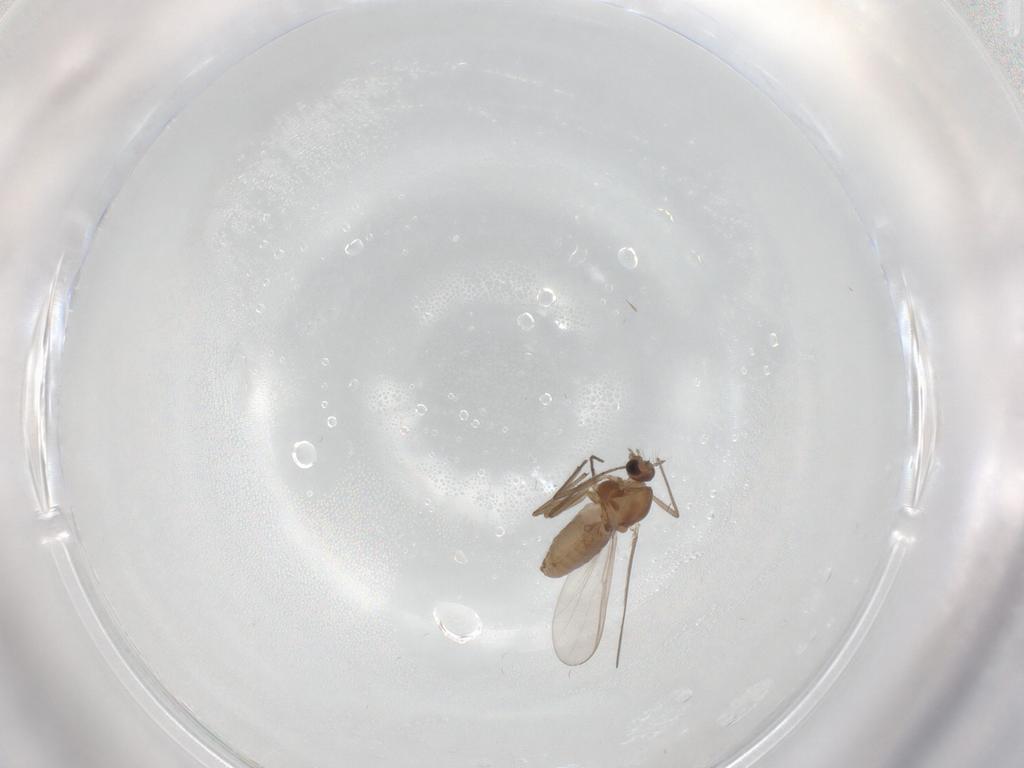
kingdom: Animalia
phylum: Arthropoda
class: Insecta
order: Diptera
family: Chironomidae
